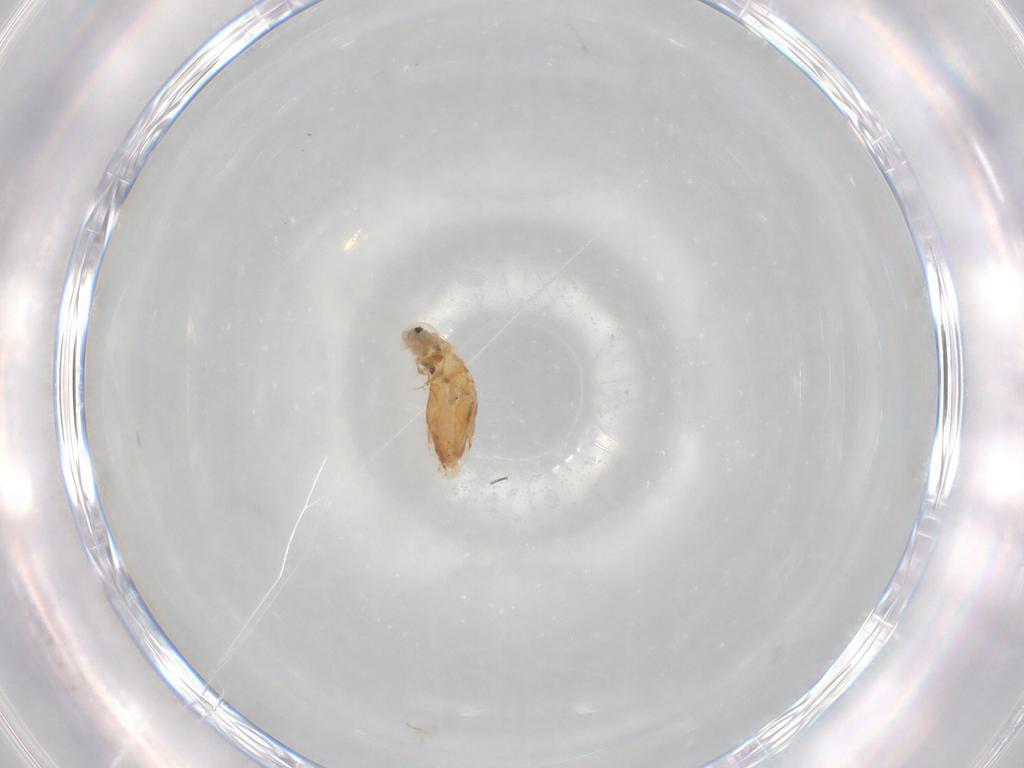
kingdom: Animalia
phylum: Arthropoda
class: Collembola
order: Entomobryomorpha
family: Entomobryidae
